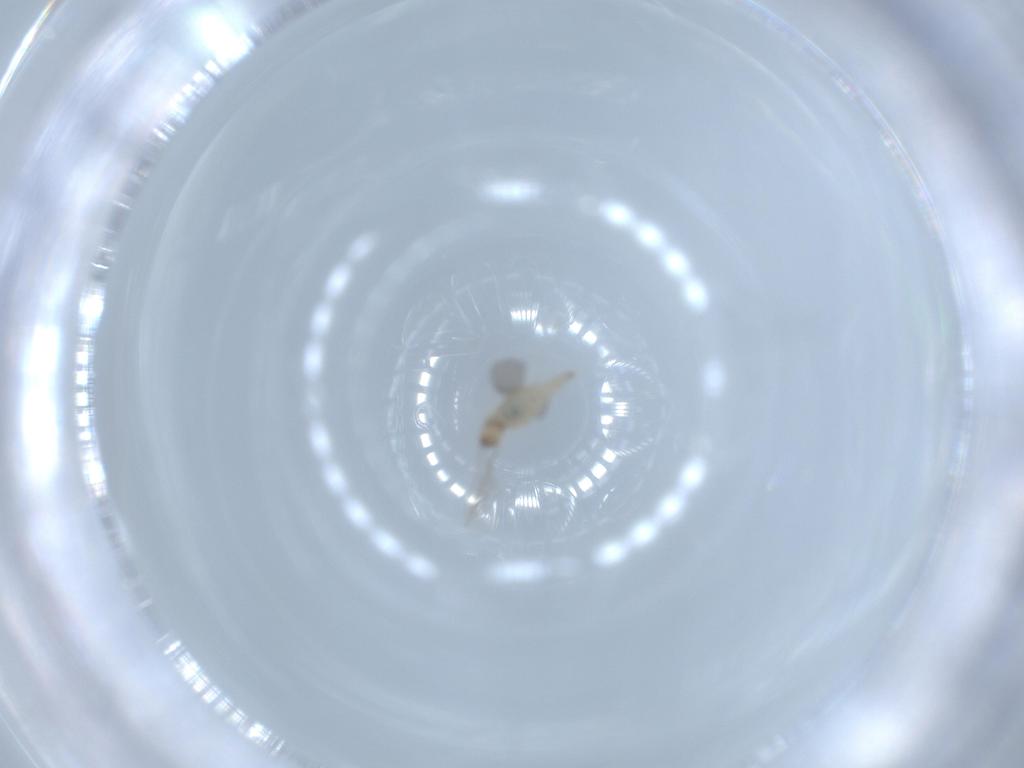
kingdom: Animalia
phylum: Arthropoda
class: Insecta
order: Diptera
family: Cecidomyiidae
